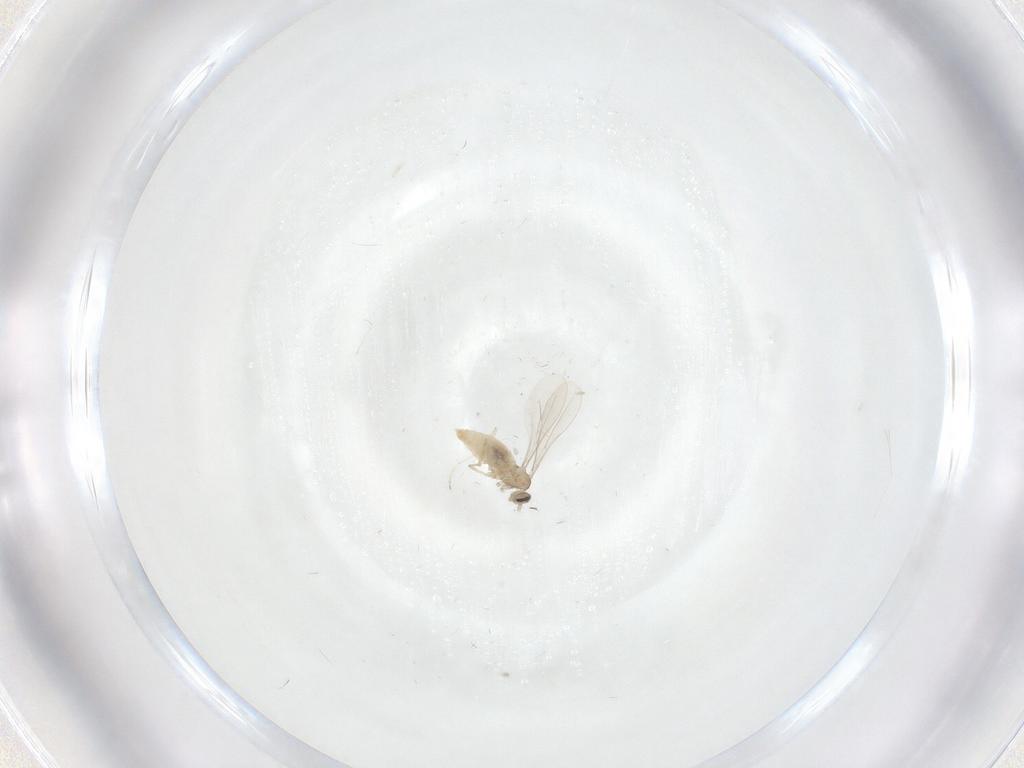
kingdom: Animalia
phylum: Arthropoda
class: Insecta
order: Diptera
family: Cecidomyiidae
